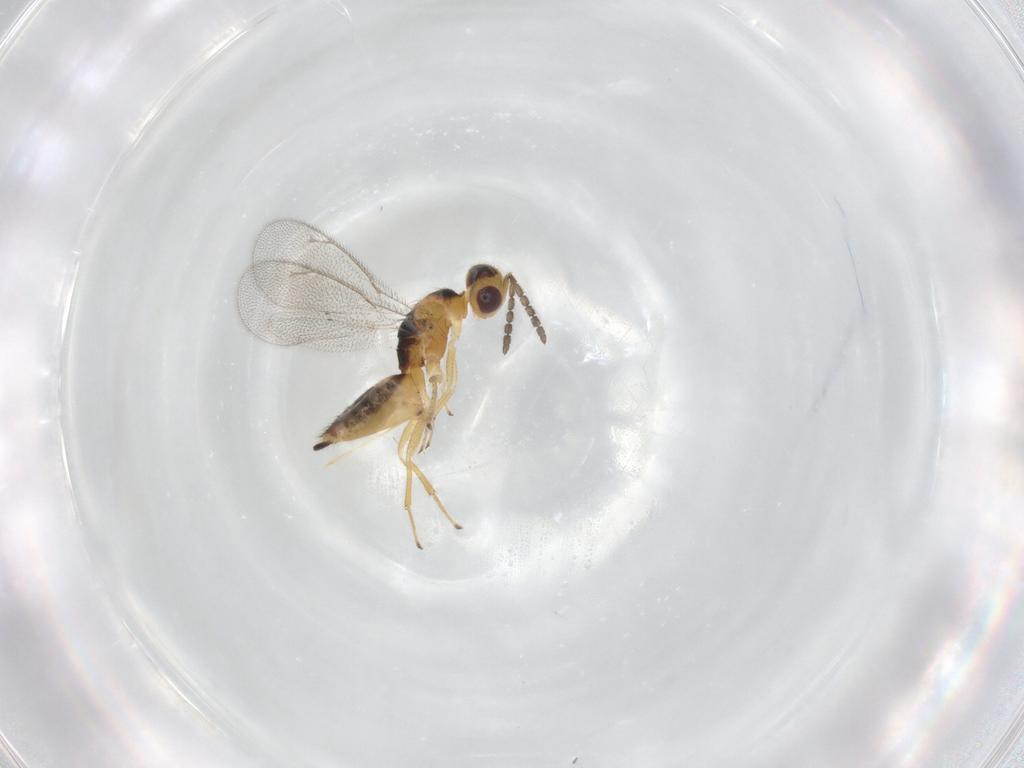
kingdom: Animalia
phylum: Arthropoda
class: Insecta
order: Hymenoptera
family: Eulophidae
